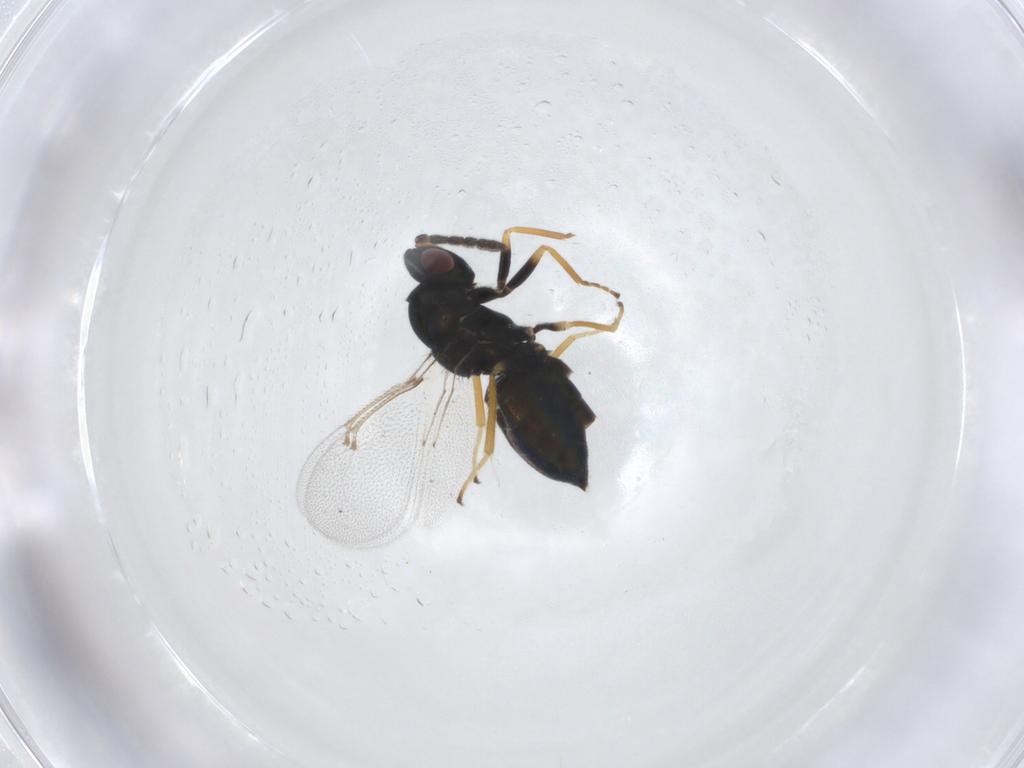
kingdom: Animalia
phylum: Arthropoda
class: Insecta
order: Hymenoptera
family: Eulophidae
